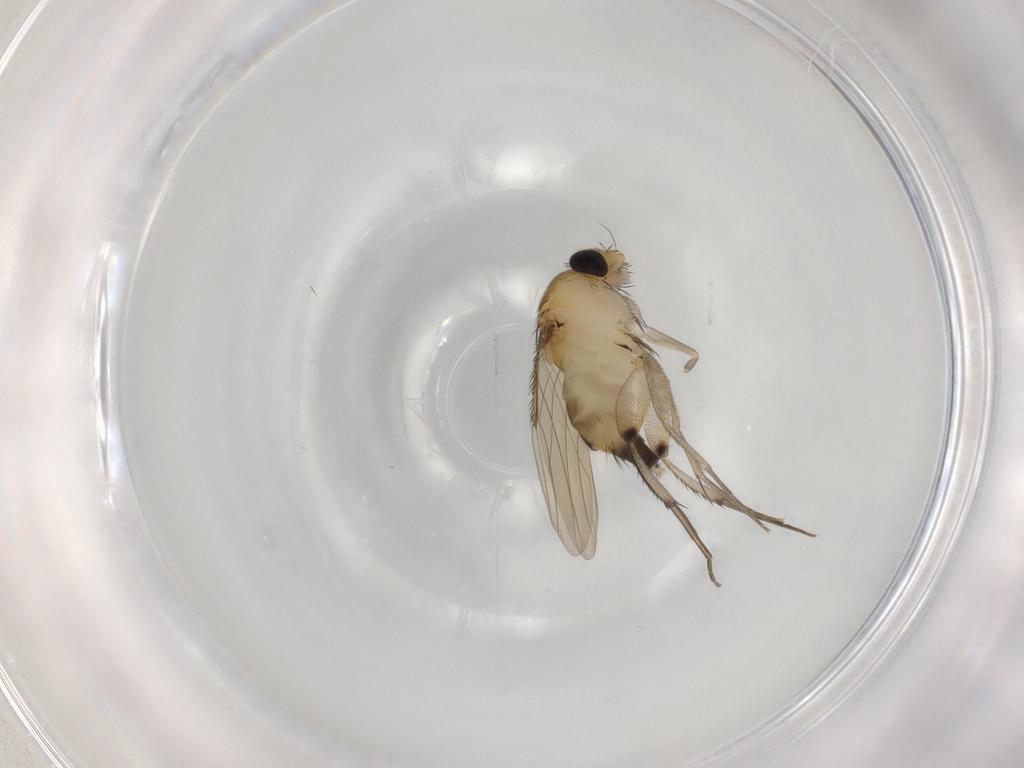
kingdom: Animalia
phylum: Arthropoda
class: Insecta
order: Diptera
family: Phoridae
